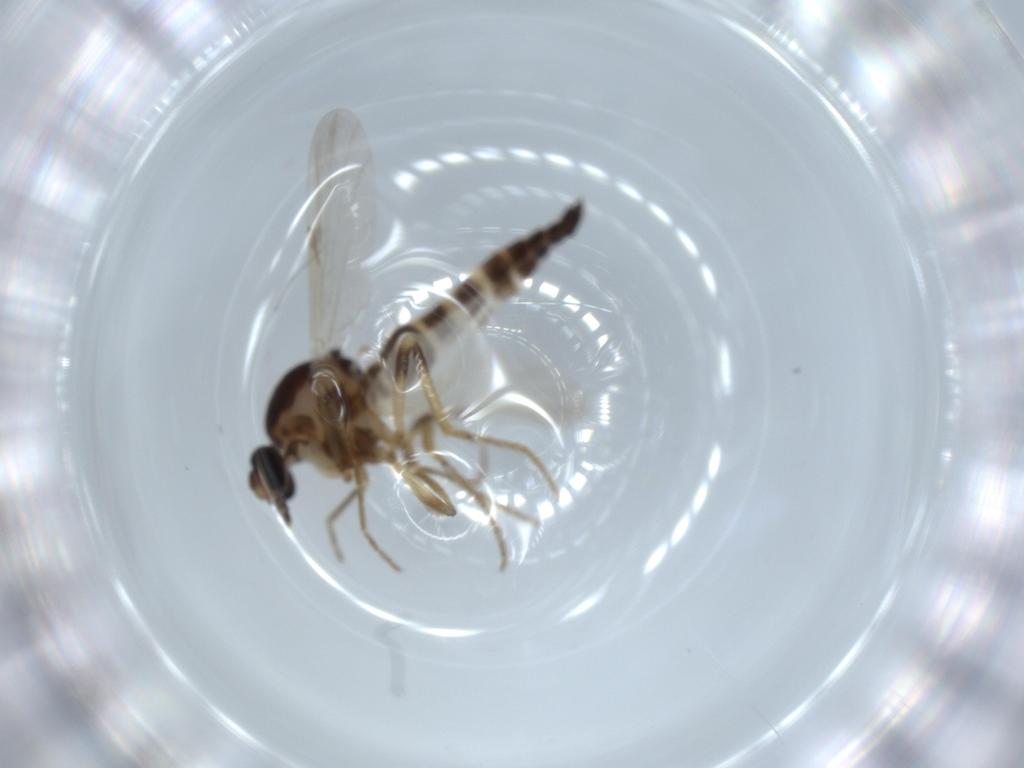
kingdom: Animalia
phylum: Arthropoda
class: Insecta
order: Diptera
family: Ceratopogonidae
